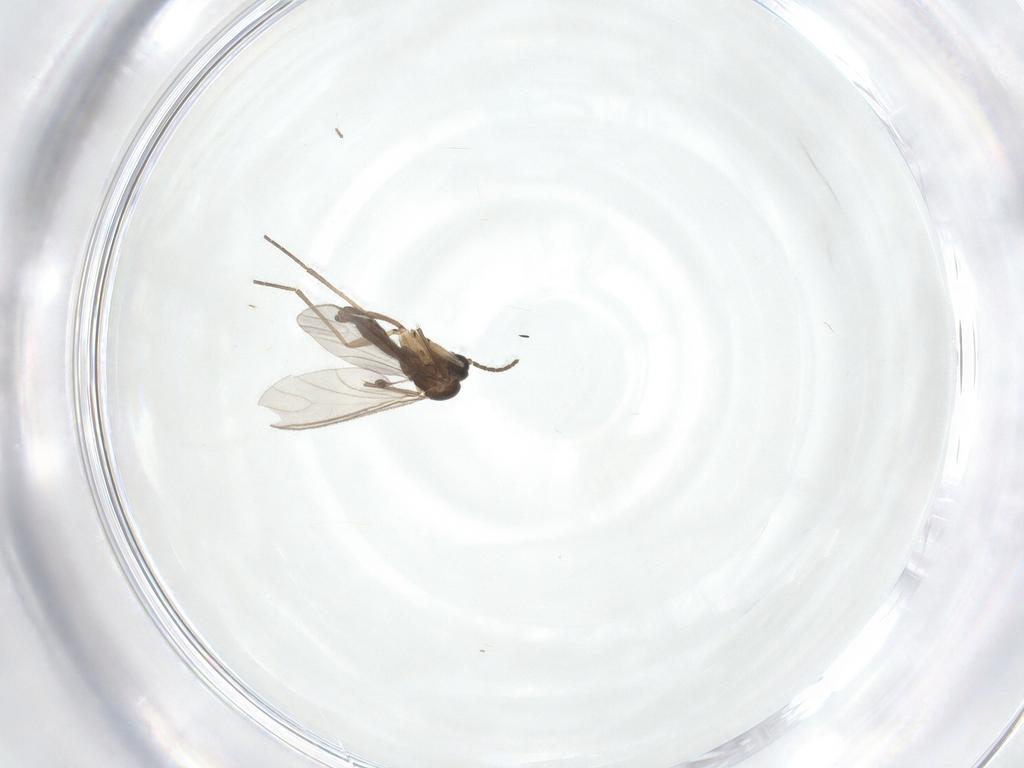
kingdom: Animalia
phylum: Arthropoda
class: Insecta
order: Diptera
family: Sciaridae
